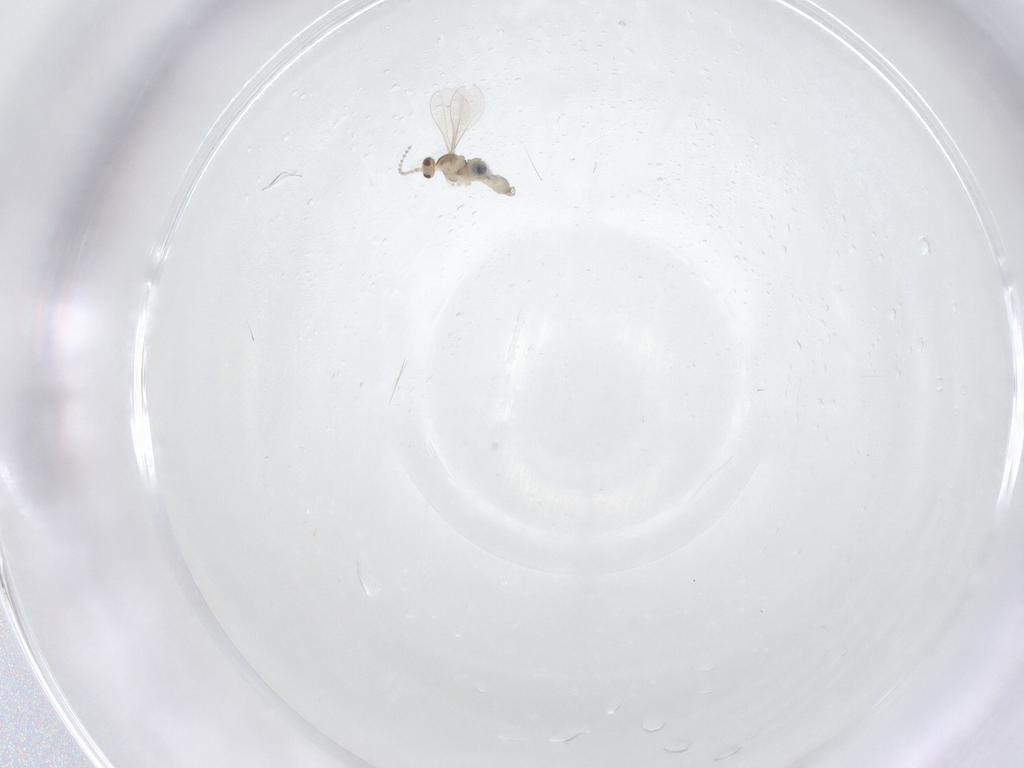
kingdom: Animalia
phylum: Arthropoda
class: Insecta
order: Diptera
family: Cecidomyiidae
